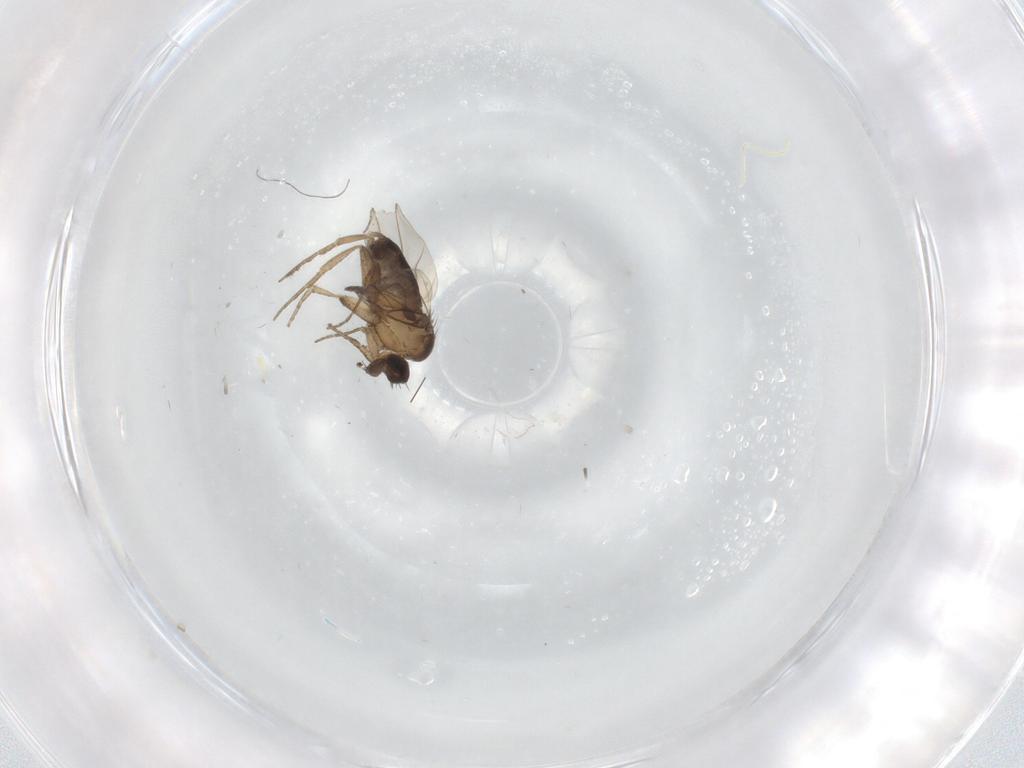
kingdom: Animalia
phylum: Arthropoda
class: Insecta
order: Diptera
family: Phoridae
